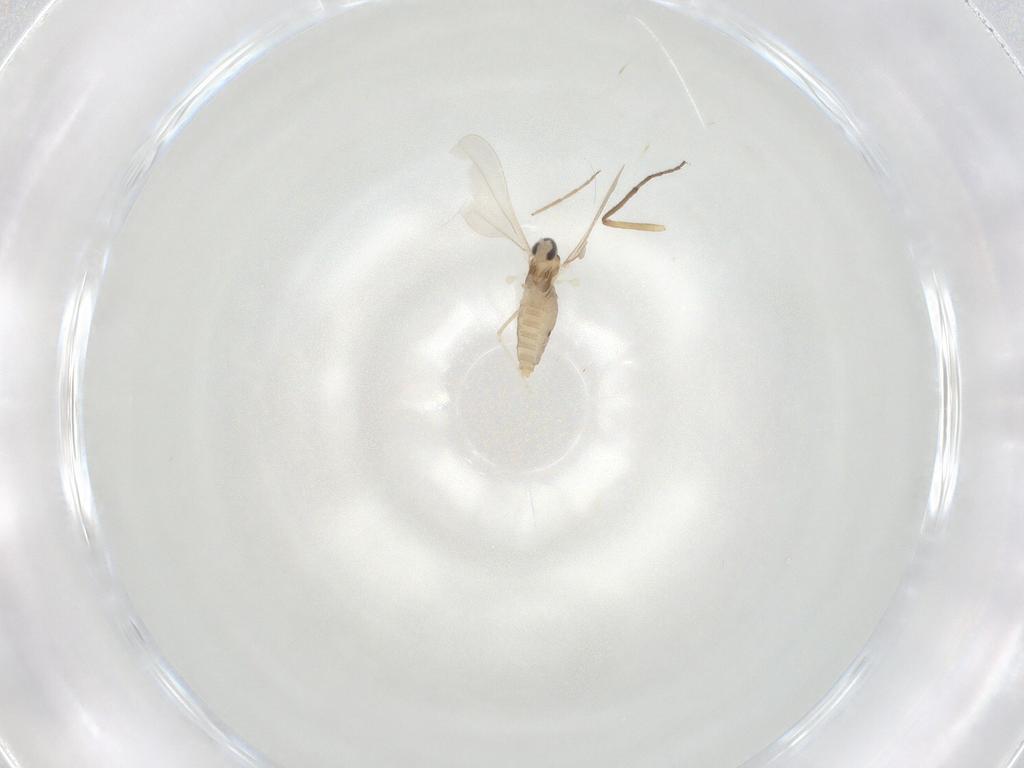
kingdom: Animalia
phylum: Arthropoda
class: Insecta
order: Diptera
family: Cecidomyiidae
